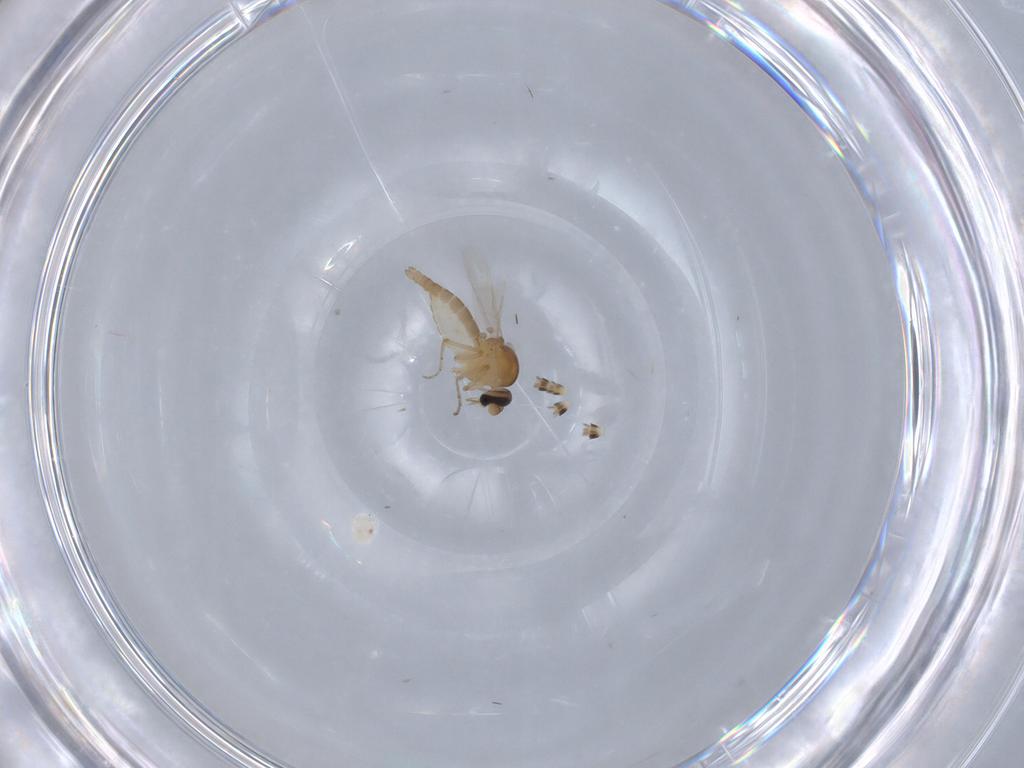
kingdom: Animalia
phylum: Arthropoda
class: Insecta
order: Diptera
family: Ceratopogonidae
